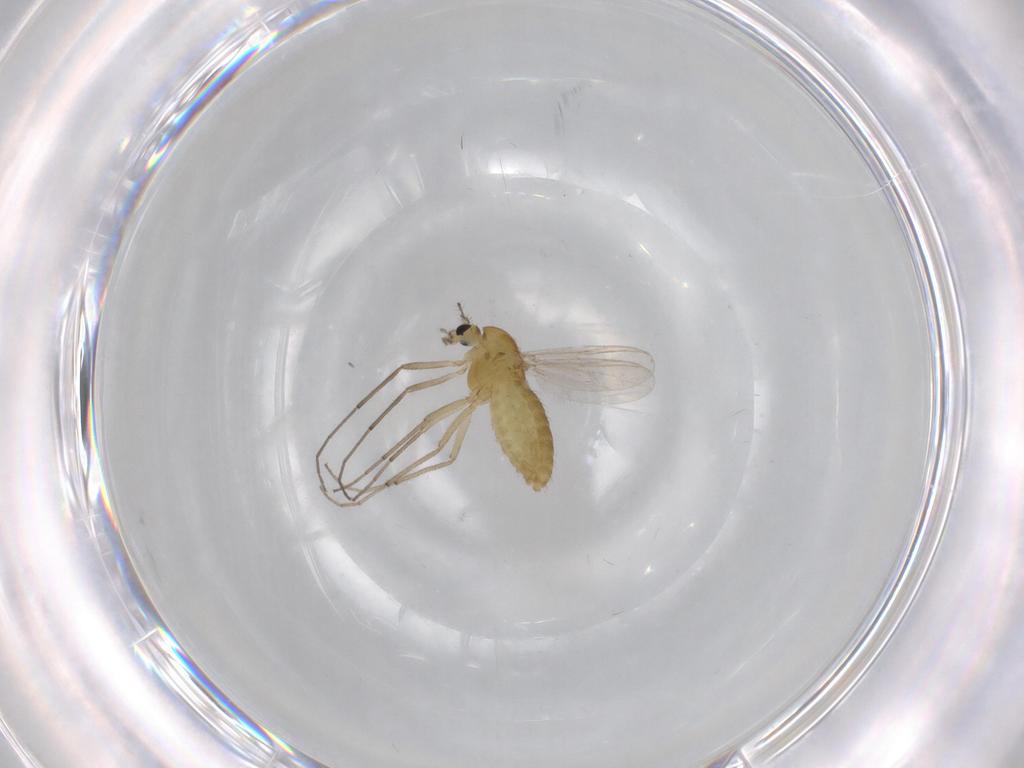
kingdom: Animalia
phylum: Arthropoda
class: Insecta
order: Diptera
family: Chironomidae
